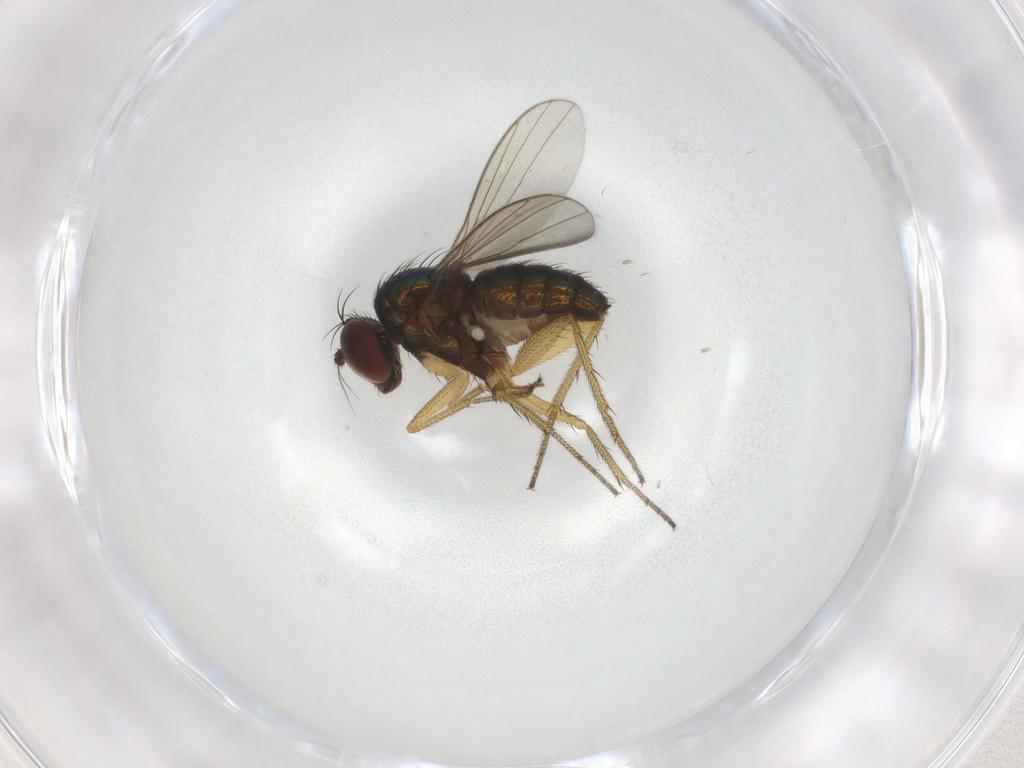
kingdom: Animalia
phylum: Arthropoda
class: Insecta
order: Diptera
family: Dolichopodidae
